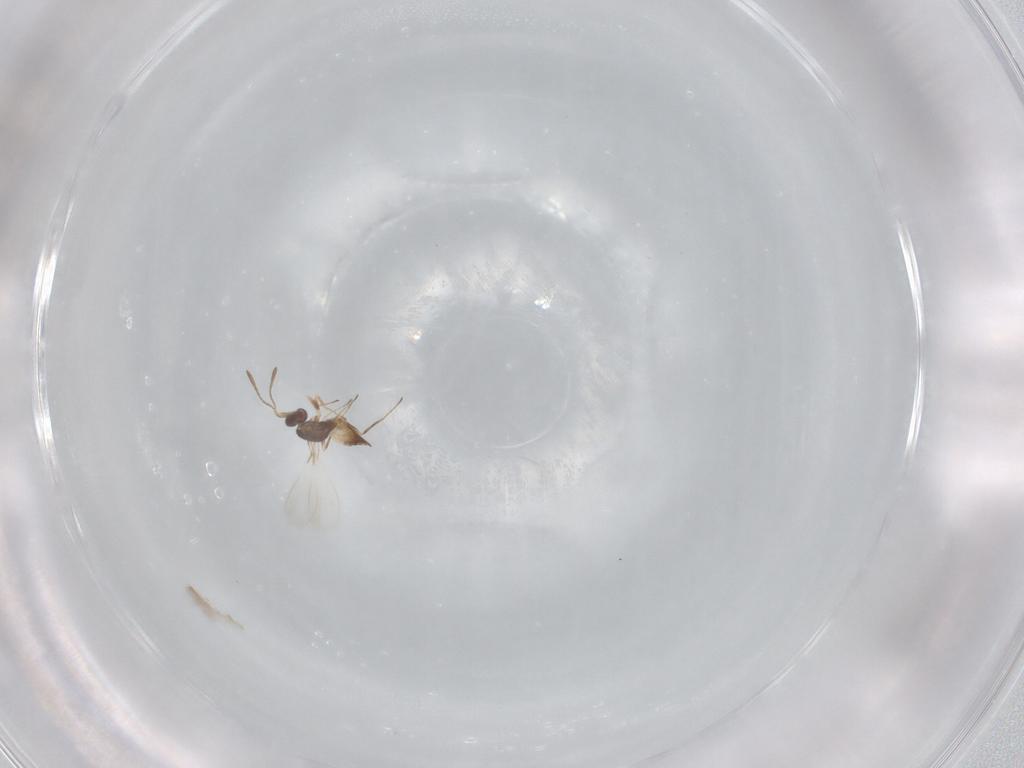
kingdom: Animalia
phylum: Arthropoda
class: Insecta
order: Hymenoptera
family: Mymaridae
